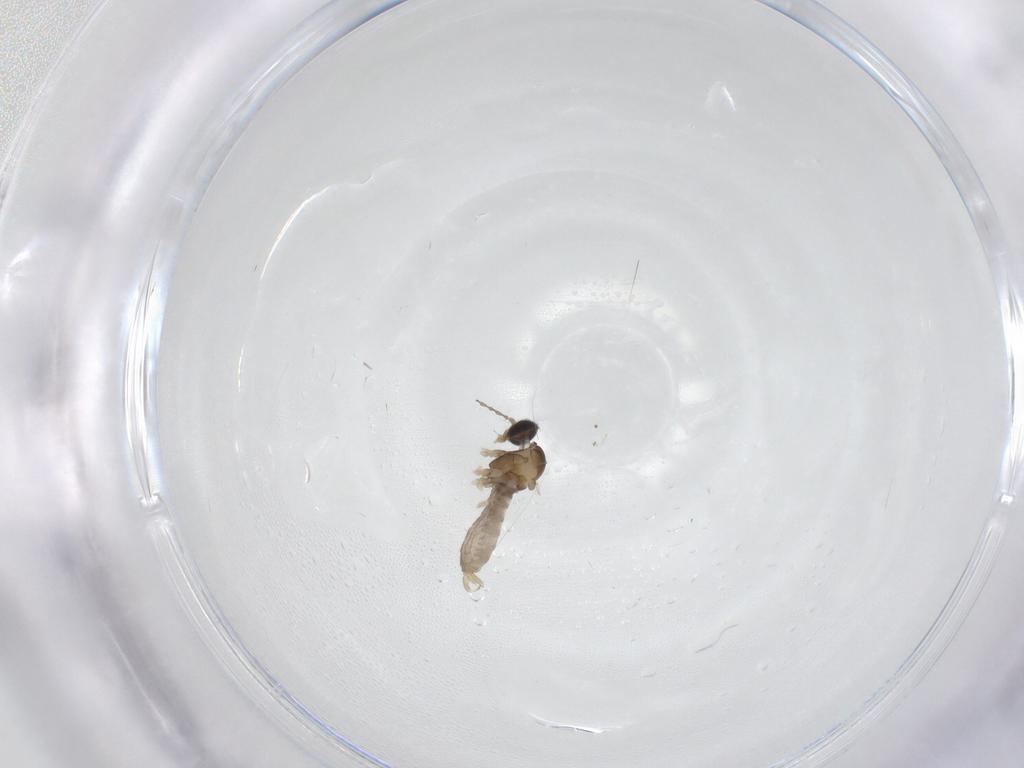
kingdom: Animalia
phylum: Arthropoda
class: Insecta
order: Diptera
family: Cecidomyiidae
